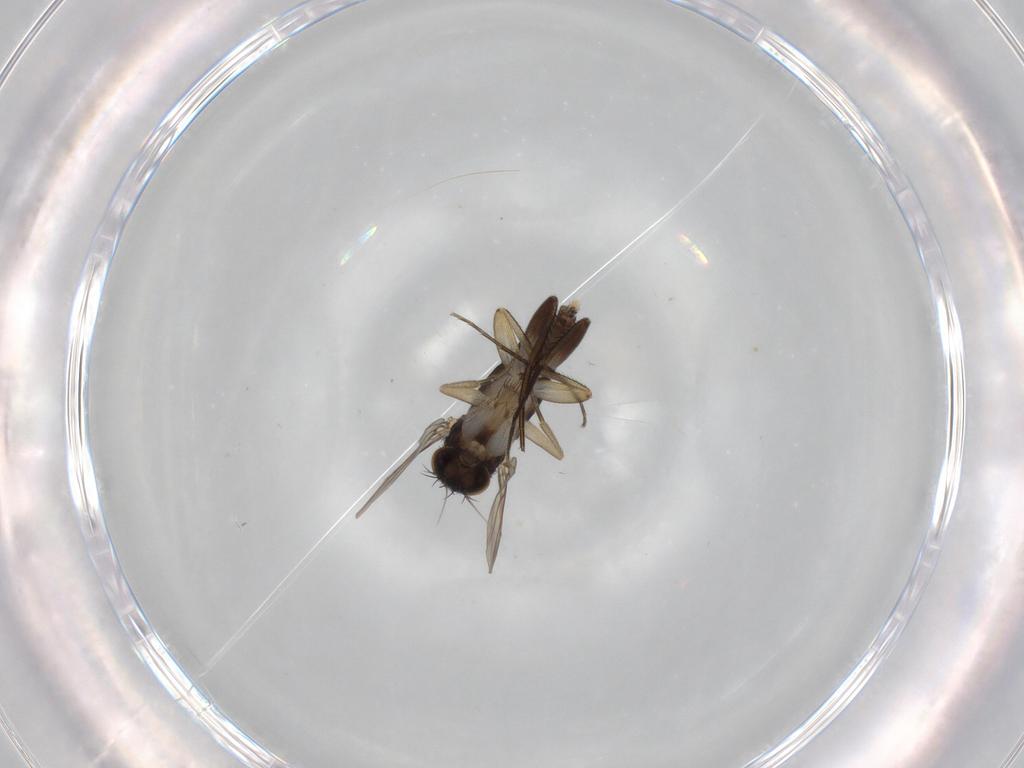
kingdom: Animalia
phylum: Arthropoda
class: Insecta
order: Diptera
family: Phoridae
